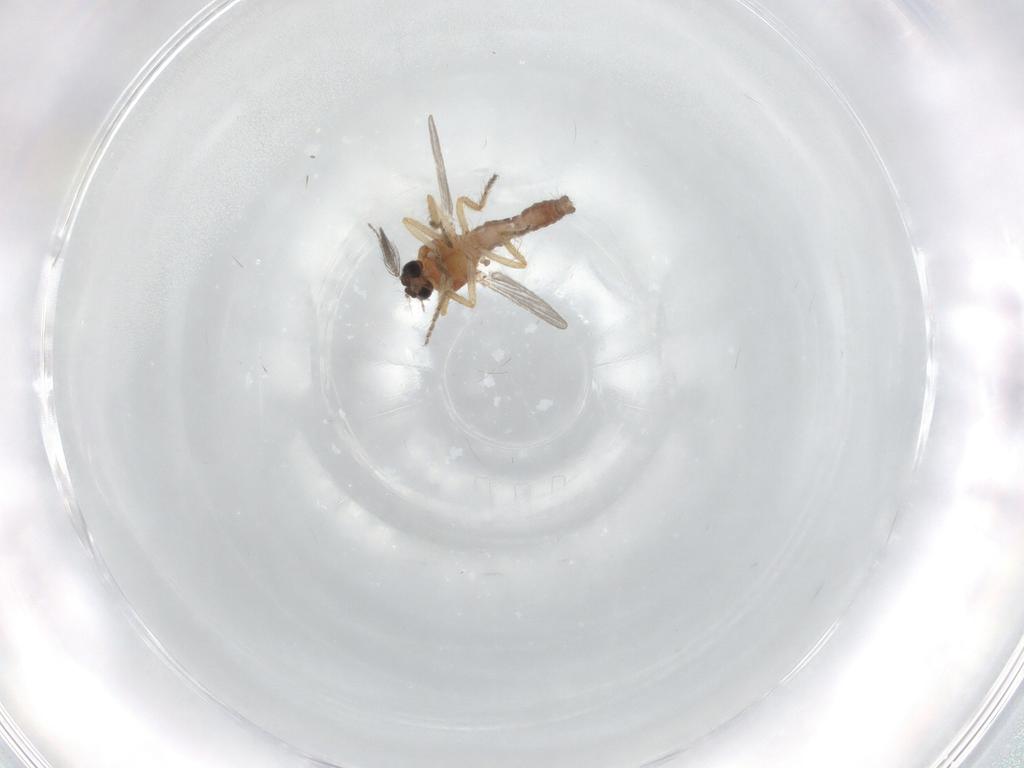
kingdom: Animalia
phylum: Arthropoda
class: Insecta
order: Diptera
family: Ceratopogonidae
